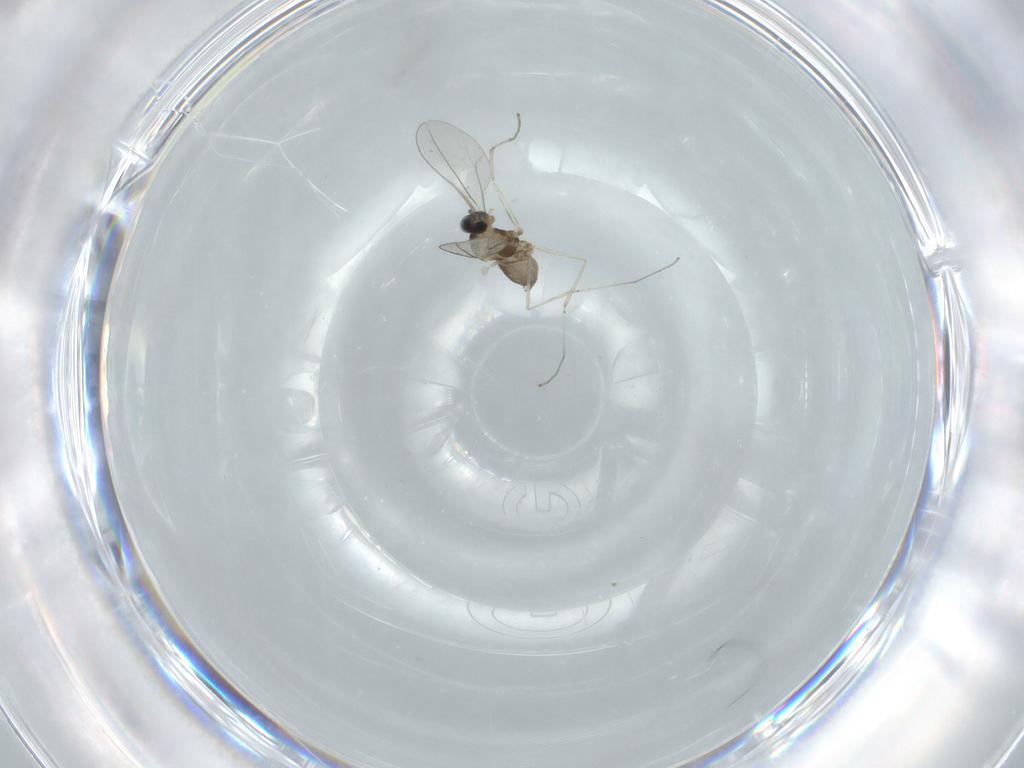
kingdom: Animalia
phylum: Arthropoda
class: Insecta
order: Diptera
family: Cecidomyiidae
